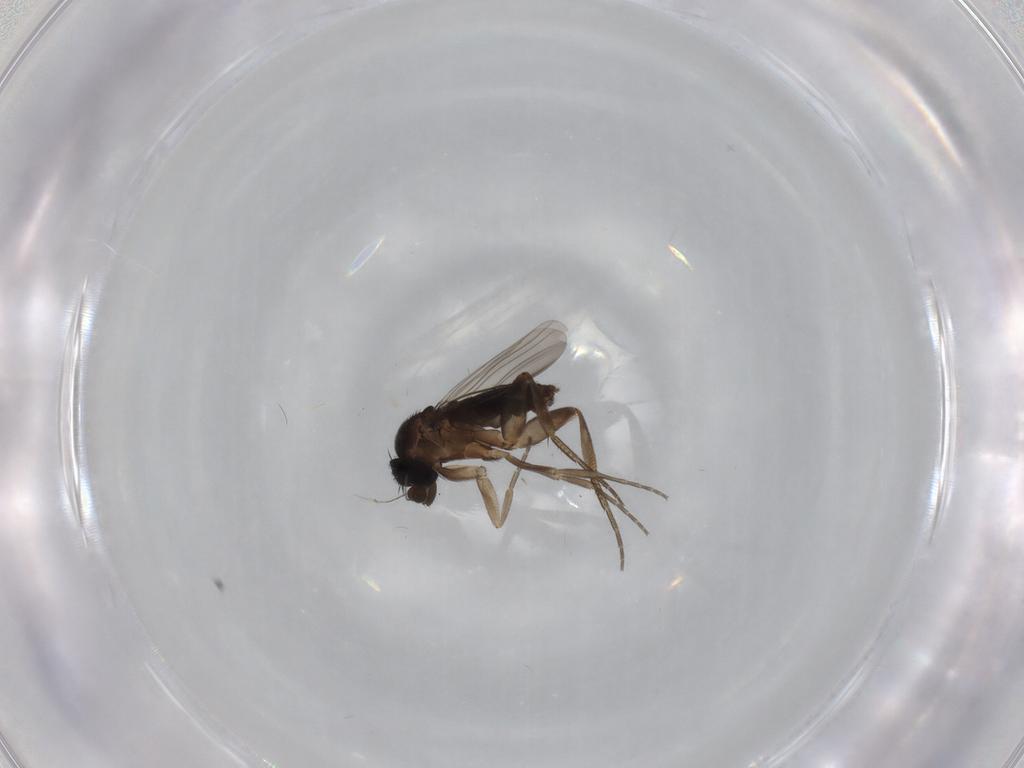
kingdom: Animalia
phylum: Arthropoda
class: Insecta
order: Diptera
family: Phoridae
